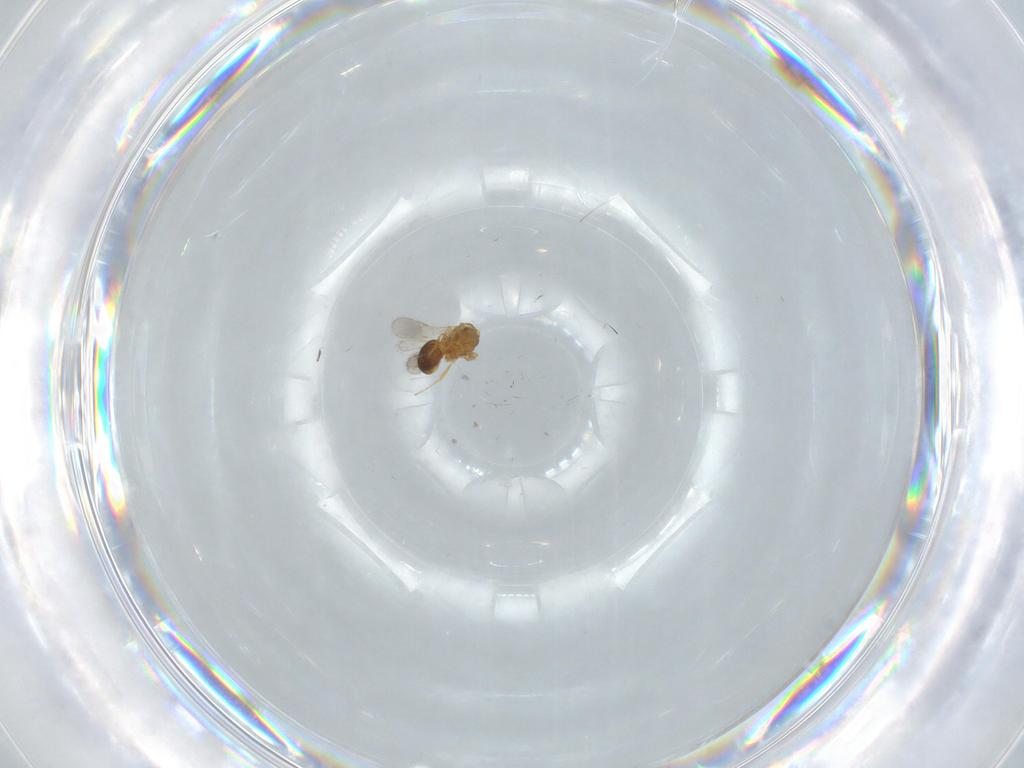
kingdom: Animalia
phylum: Arthropoda
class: Insecta
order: Hymenoptera
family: Scelionidae
